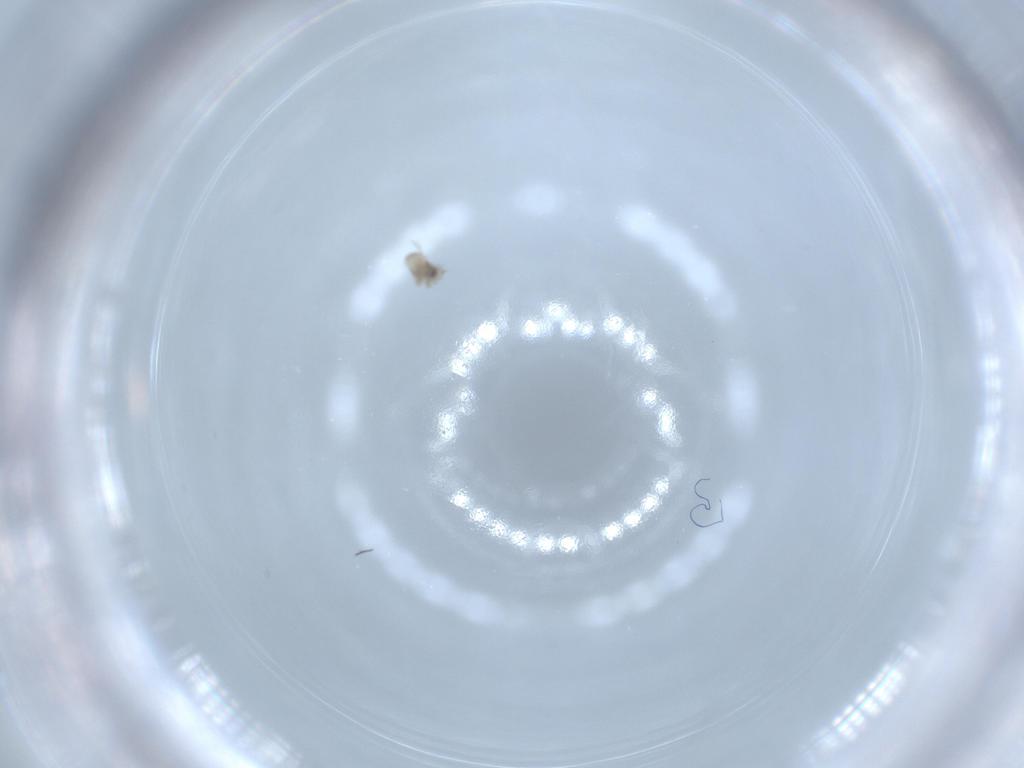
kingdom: Animalia
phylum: Arthropoda
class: Insecta
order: Diptera
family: Cecidomyiidae
